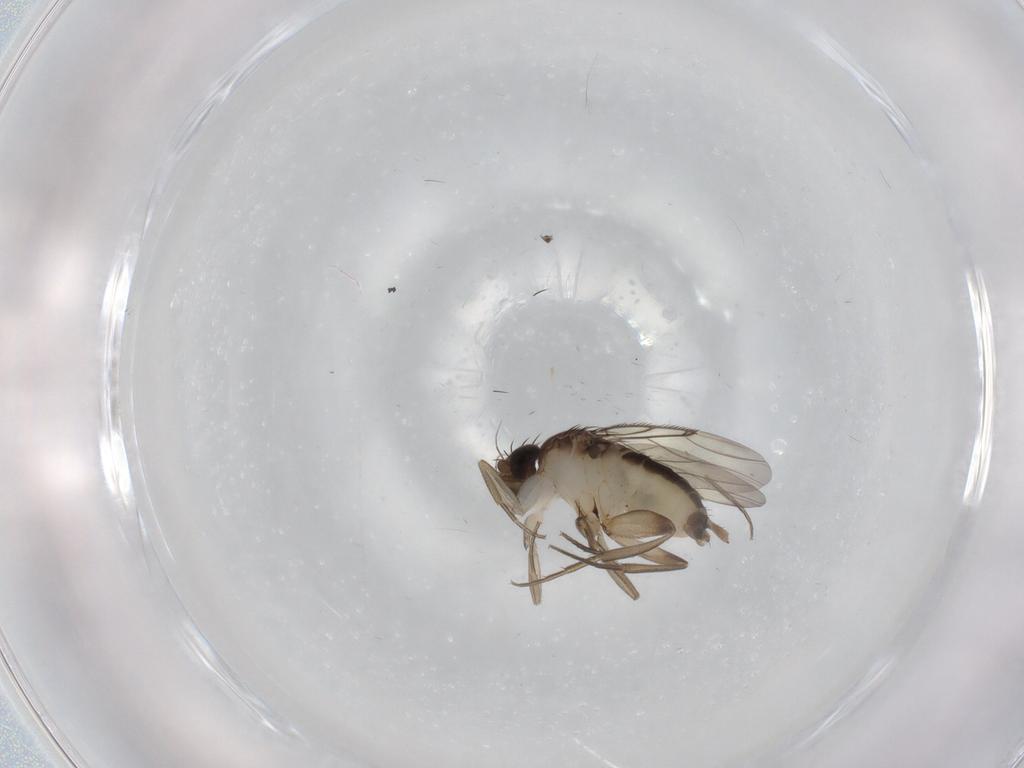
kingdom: Animalia
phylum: Arthropoda
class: Insecta
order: Diptera
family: Phoridae
